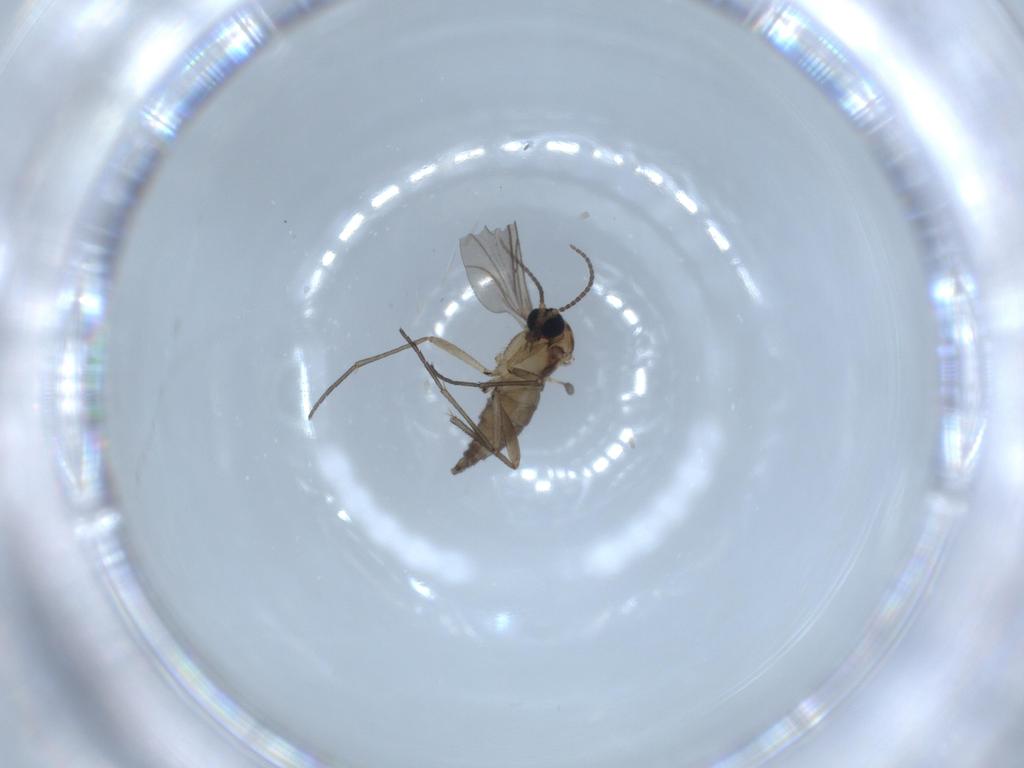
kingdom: Animalia
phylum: Arthropoda
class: Insecta
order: Diptera
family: Sciaridae
